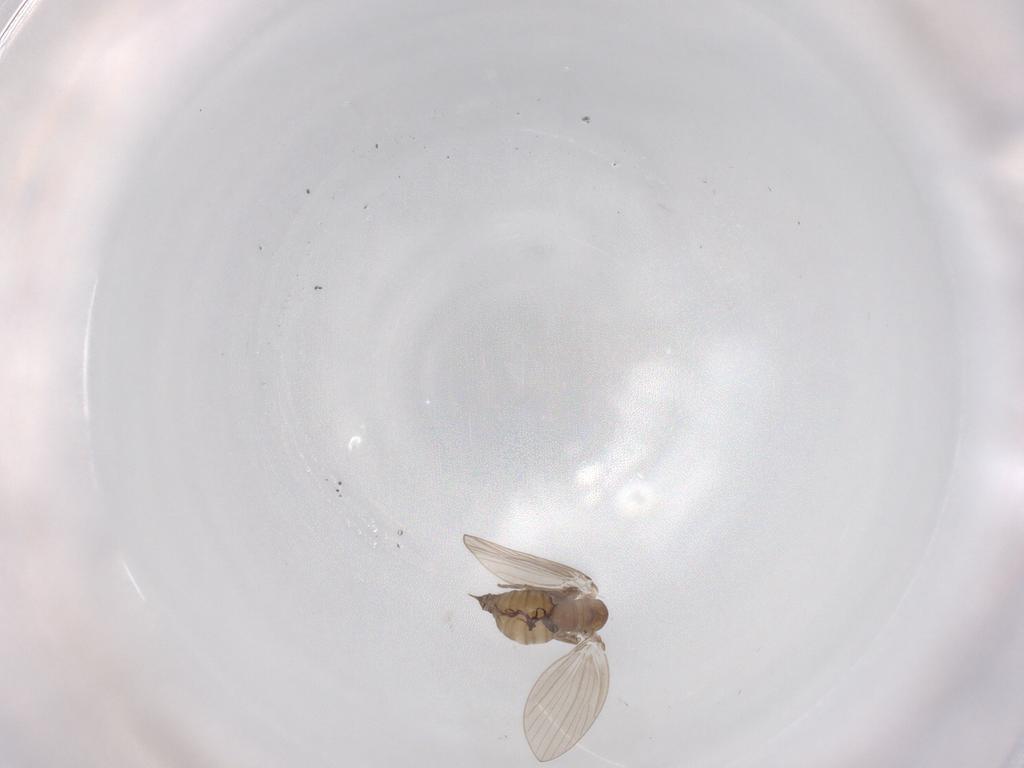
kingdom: Animalia
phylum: Arthropoda
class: Insecta
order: Diptera
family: Psychodidae
